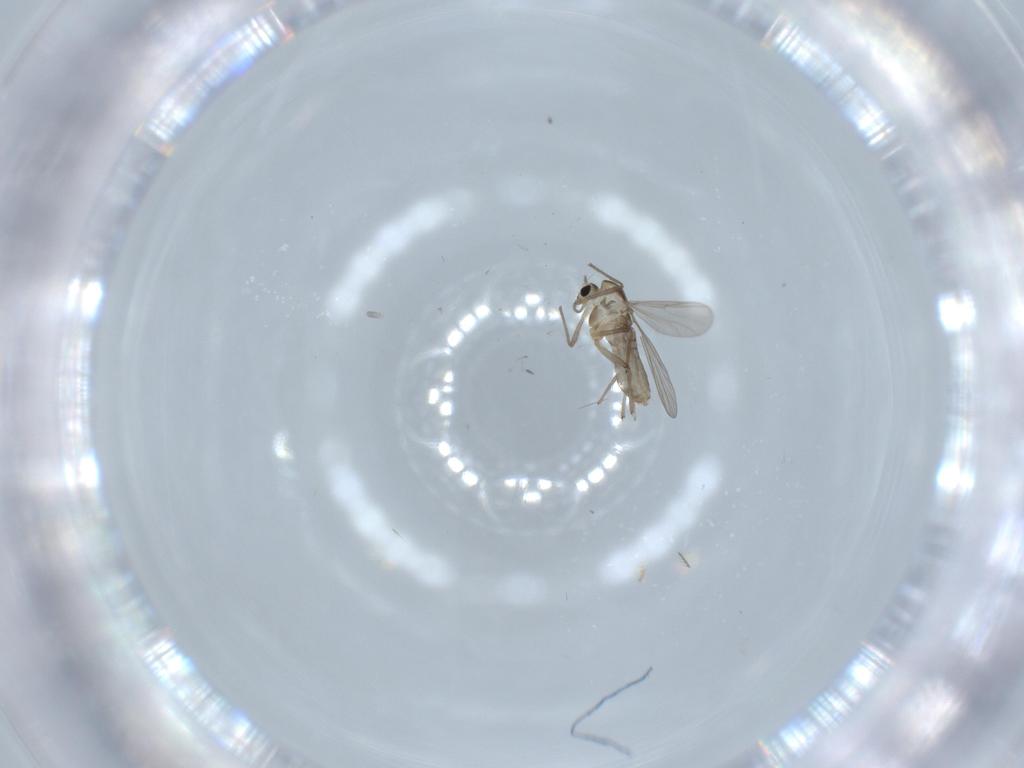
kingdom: Animalia
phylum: Arthropoda
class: Insecta
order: Diptera
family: Chironomidae
